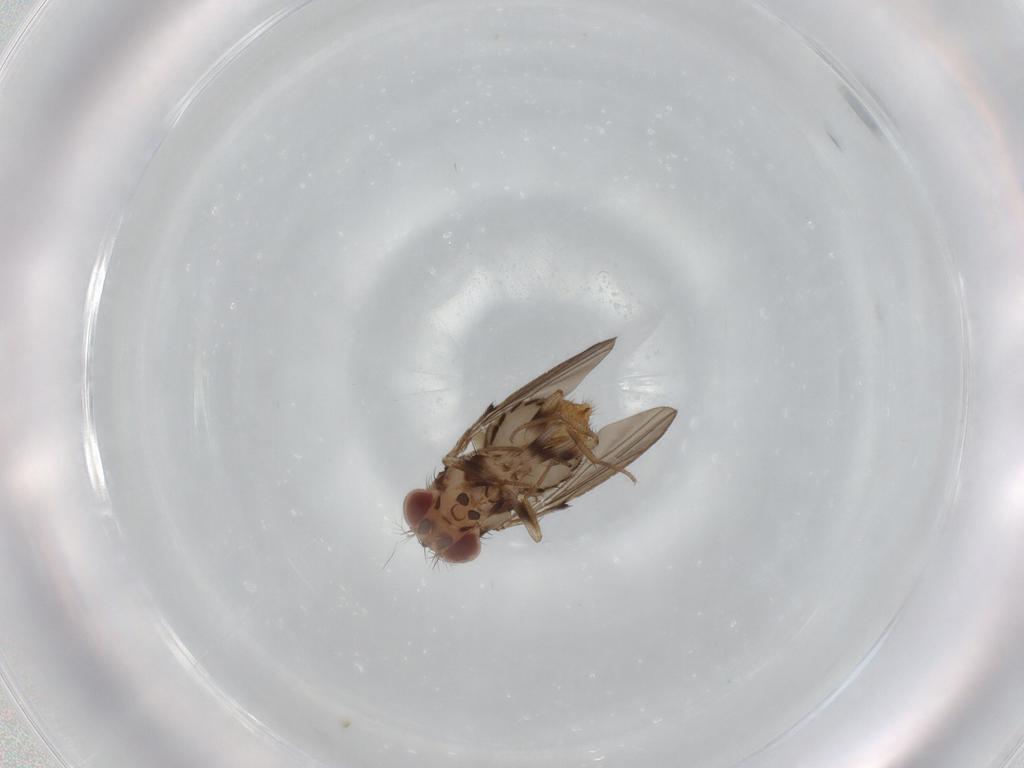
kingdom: Animalia
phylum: Arthropoda
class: Insecta
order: Diptera
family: Drosophilidae
